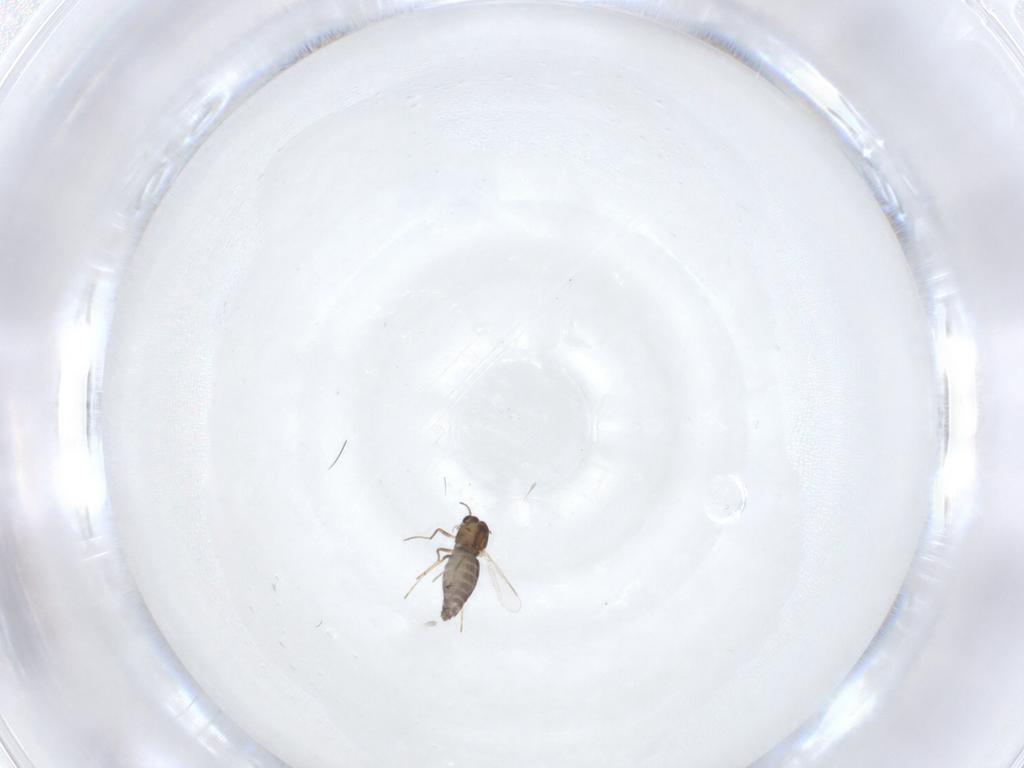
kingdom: Animalia
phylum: Arthropoda
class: Insecta
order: Diptera
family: Chironomidae
